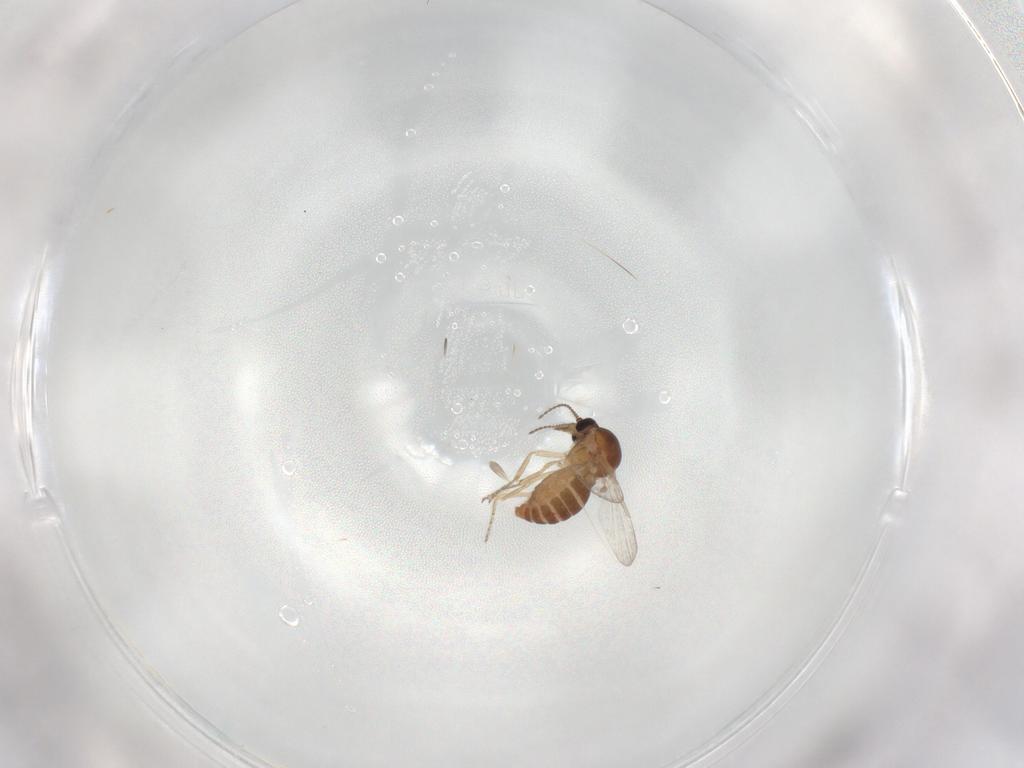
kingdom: Animalia
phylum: Arthropoda
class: Insecta
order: Diptera
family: Ceratopogonidae
